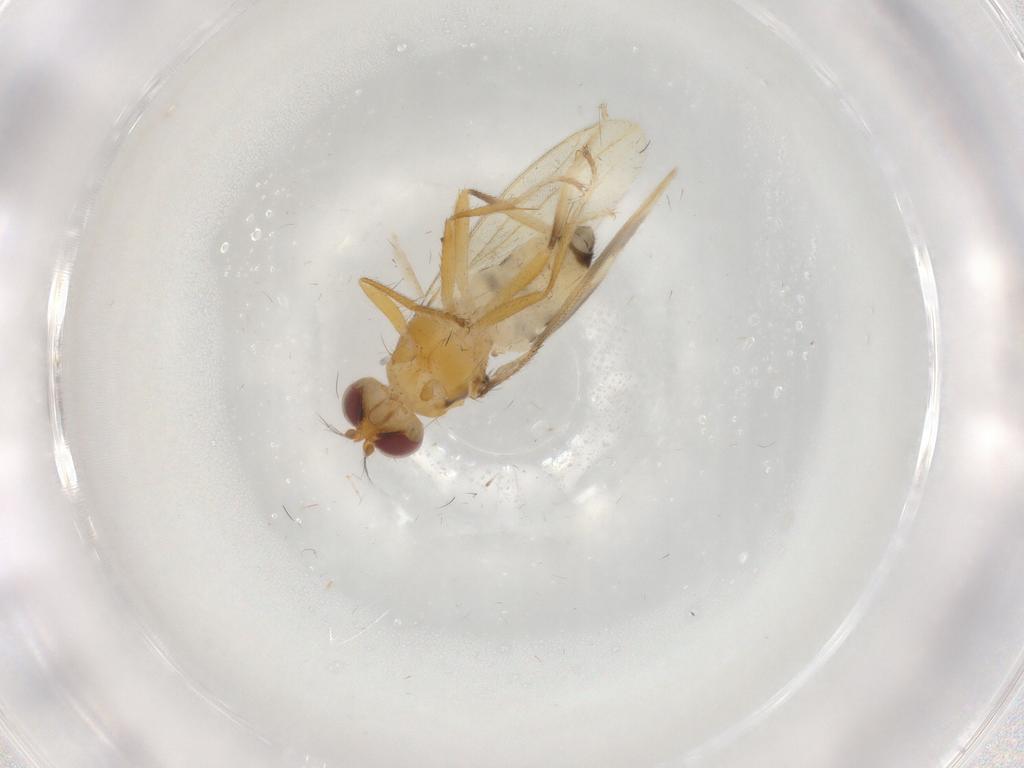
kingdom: Animalia
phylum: Arthropoda
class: Insecta
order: Diptera
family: Cecidomyiidae
